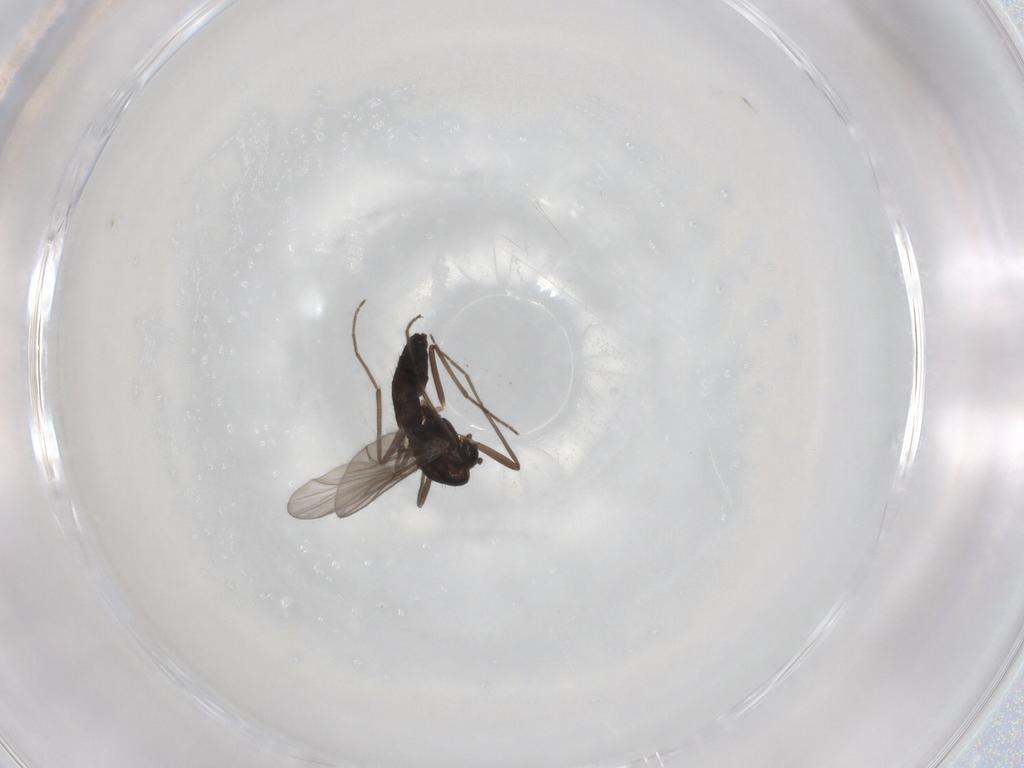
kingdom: Animalia
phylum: Arthropoda
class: Insecta
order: Diptera
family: Chironomidae
